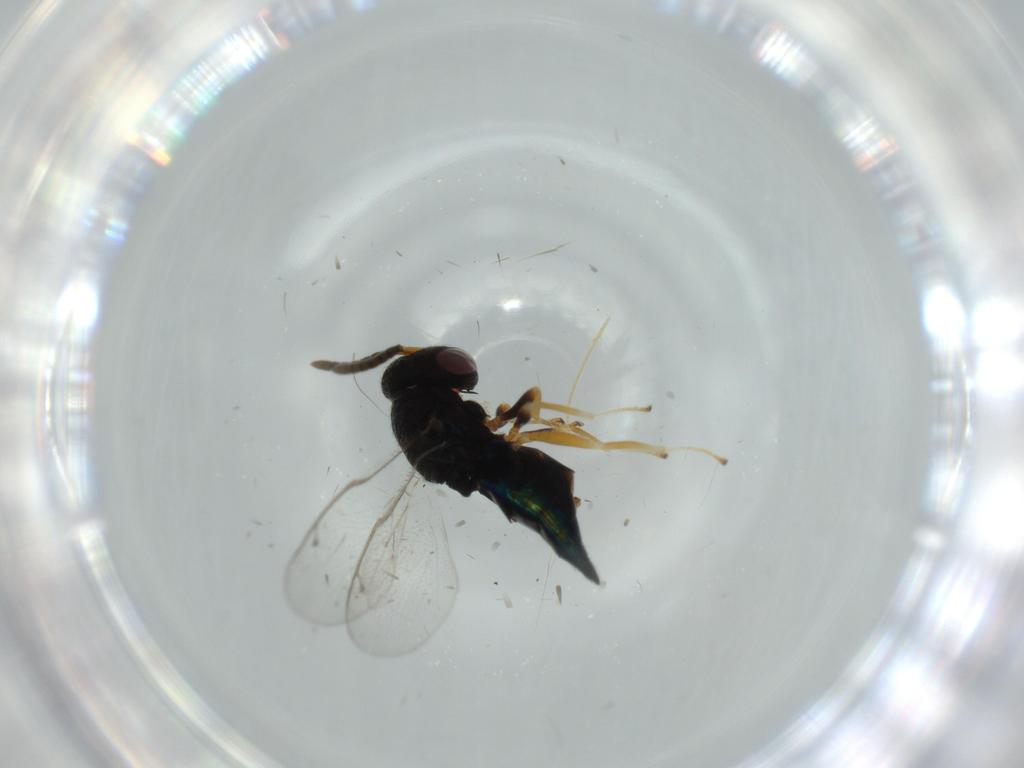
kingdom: Animalia
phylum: Arthropoda
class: Insecta
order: Hymenoptera
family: Pteromalidae
